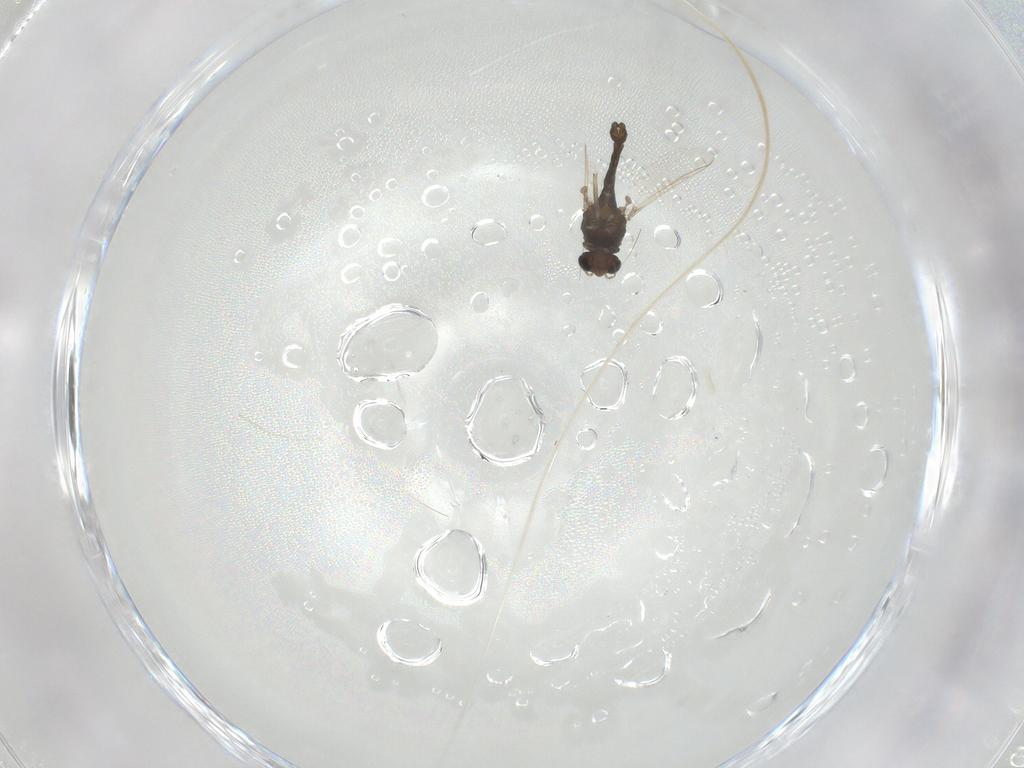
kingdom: Animalia
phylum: Arthropoda
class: Insecta
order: Diptera
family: Chironomidae
